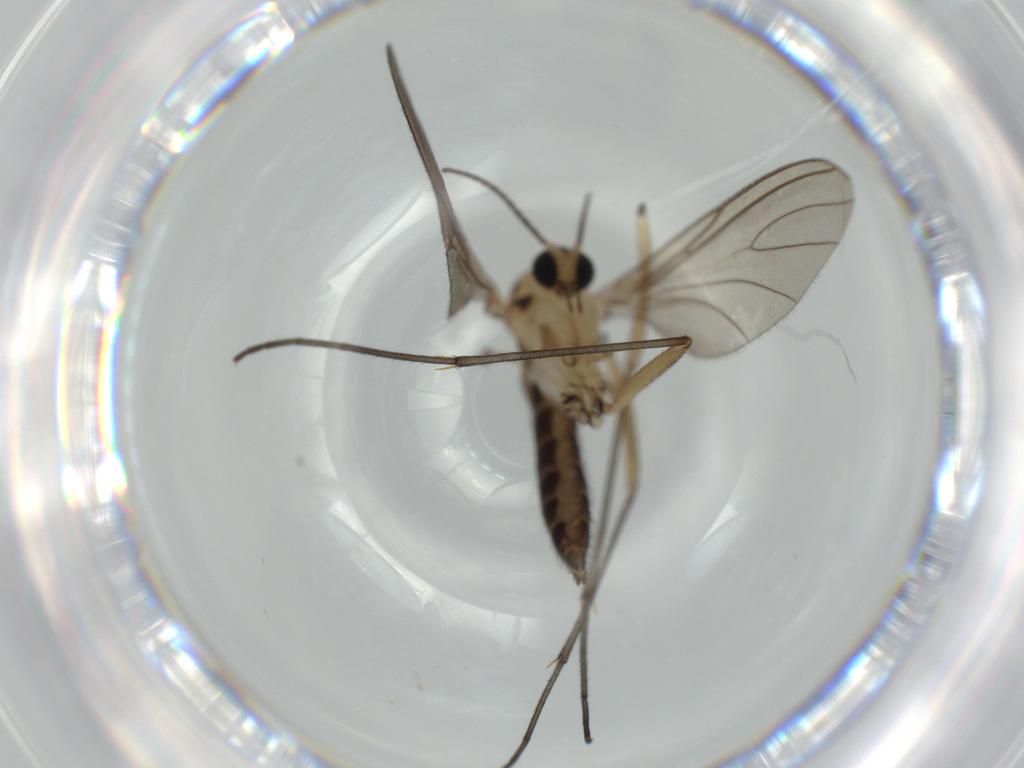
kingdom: Animalia
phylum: Arthropoda
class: Insecta
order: Diptera
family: Sciaridae
